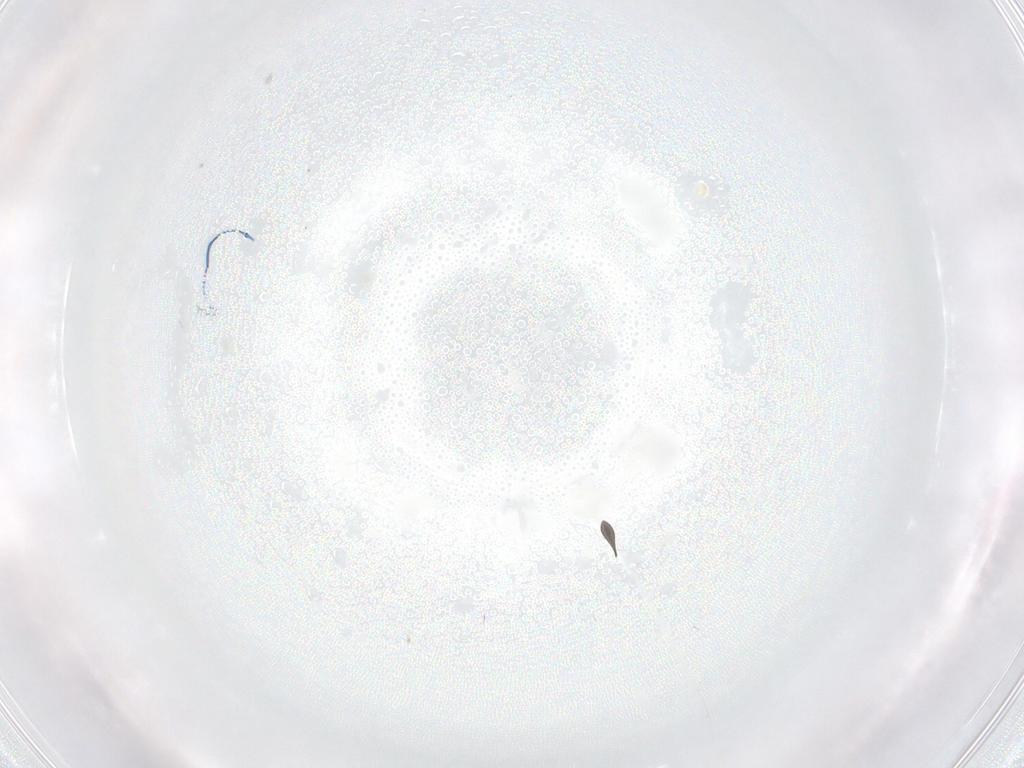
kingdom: Animalia
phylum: Arthropoda
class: Insecta
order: Diptera
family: Sciaridae
